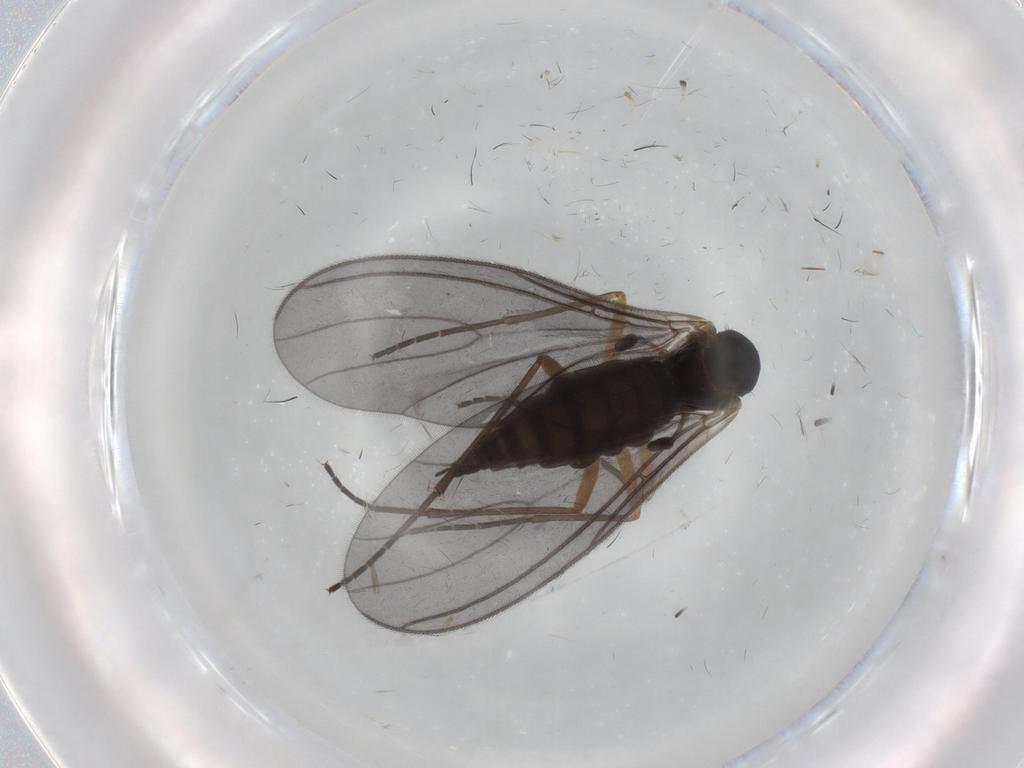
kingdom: Animalia
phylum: Arthropoda
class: Insecta
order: Diptera
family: Sciaridae
